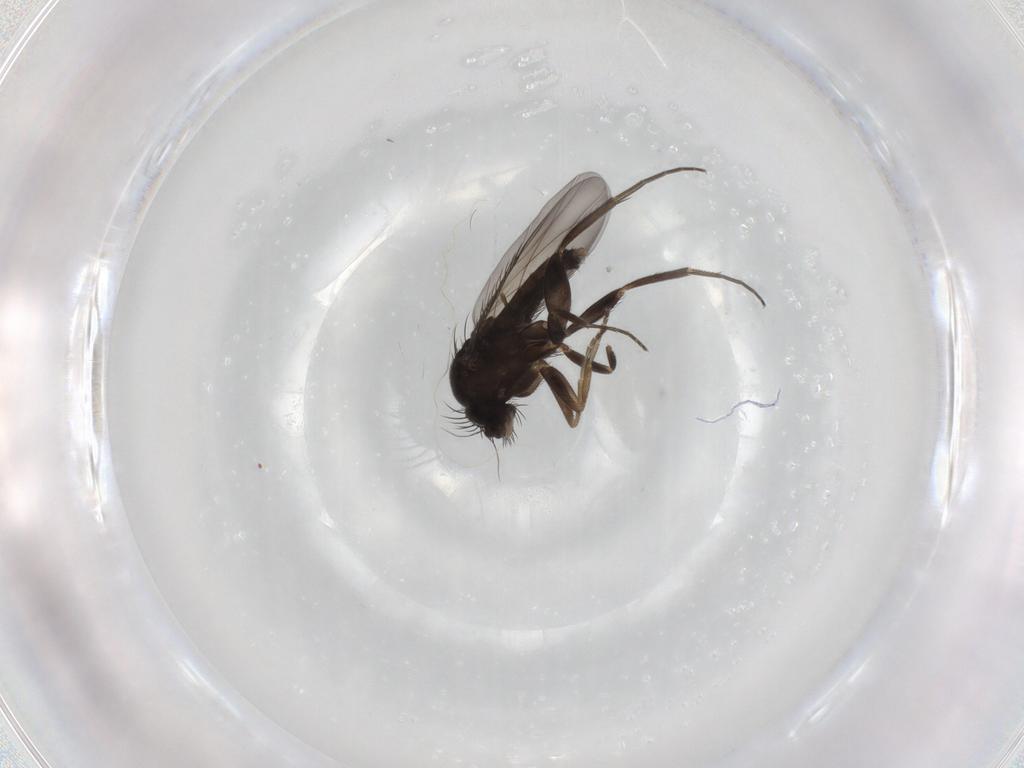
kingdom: Animalia
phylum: Arthropoda
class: Insecta
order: Diptera
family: Phoridae
